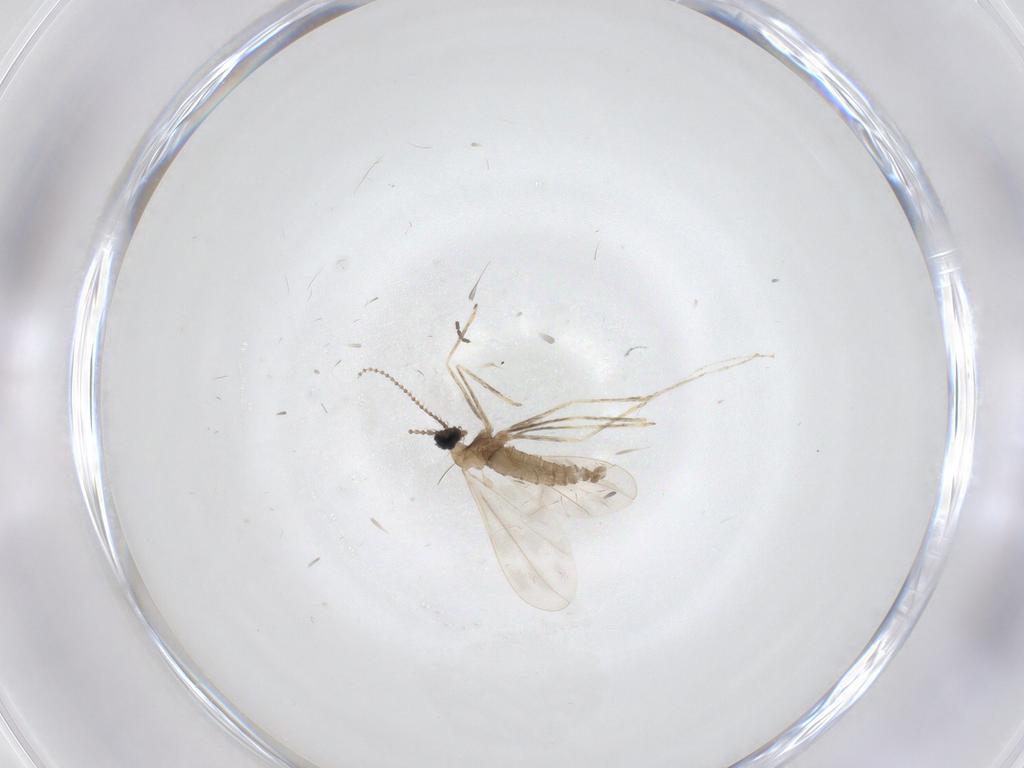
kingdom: Animalia
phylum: Arthropoda
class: Insecta
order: Diptera
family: Cecidomyiidae
